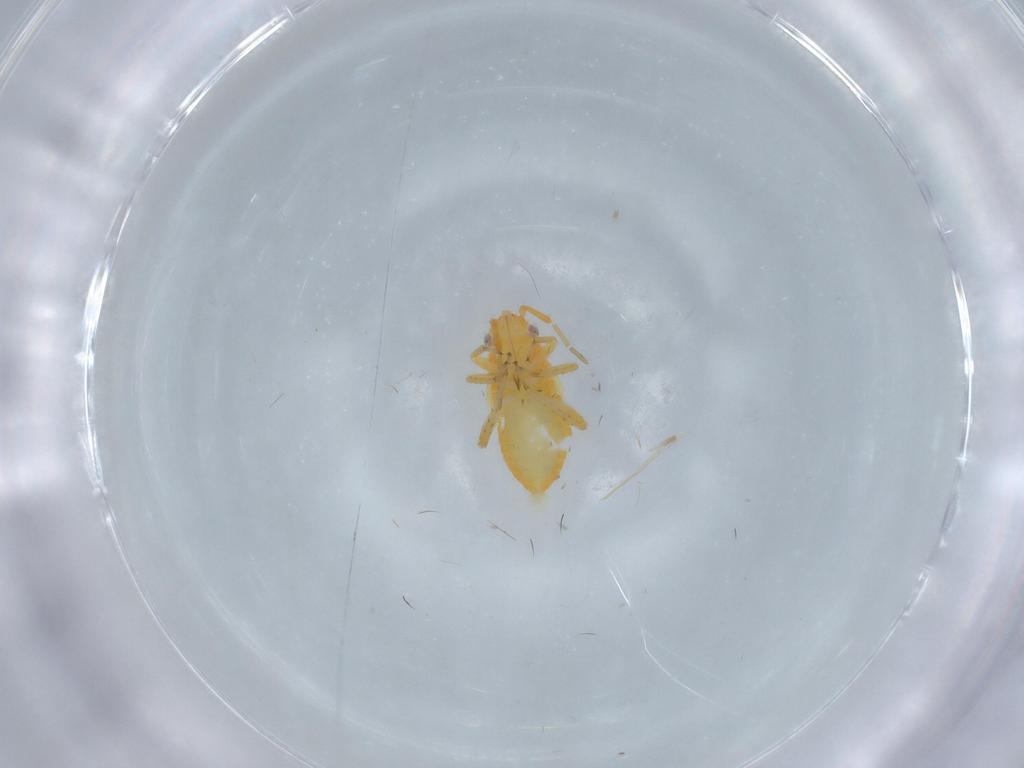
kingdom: Animalia
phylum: Arthropoda
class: Insecta
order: Hemiptera
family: Miridae
